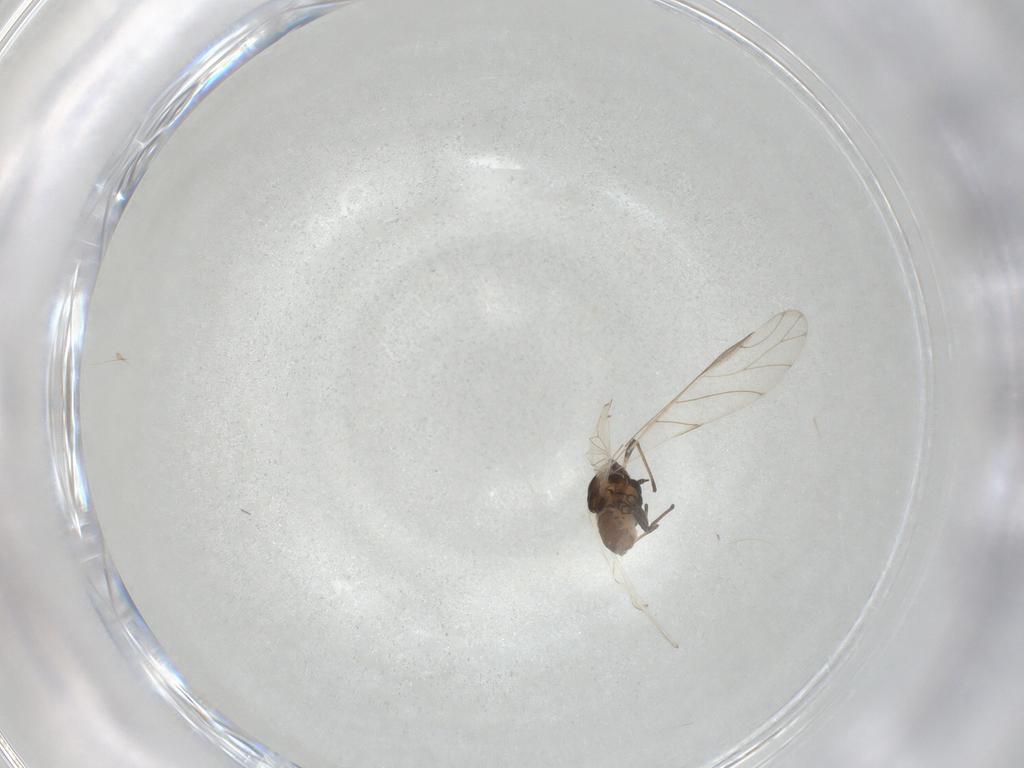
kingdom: Animalia
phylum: Arthropoda
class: Insecta
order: Hemiptera
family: Aphididae
